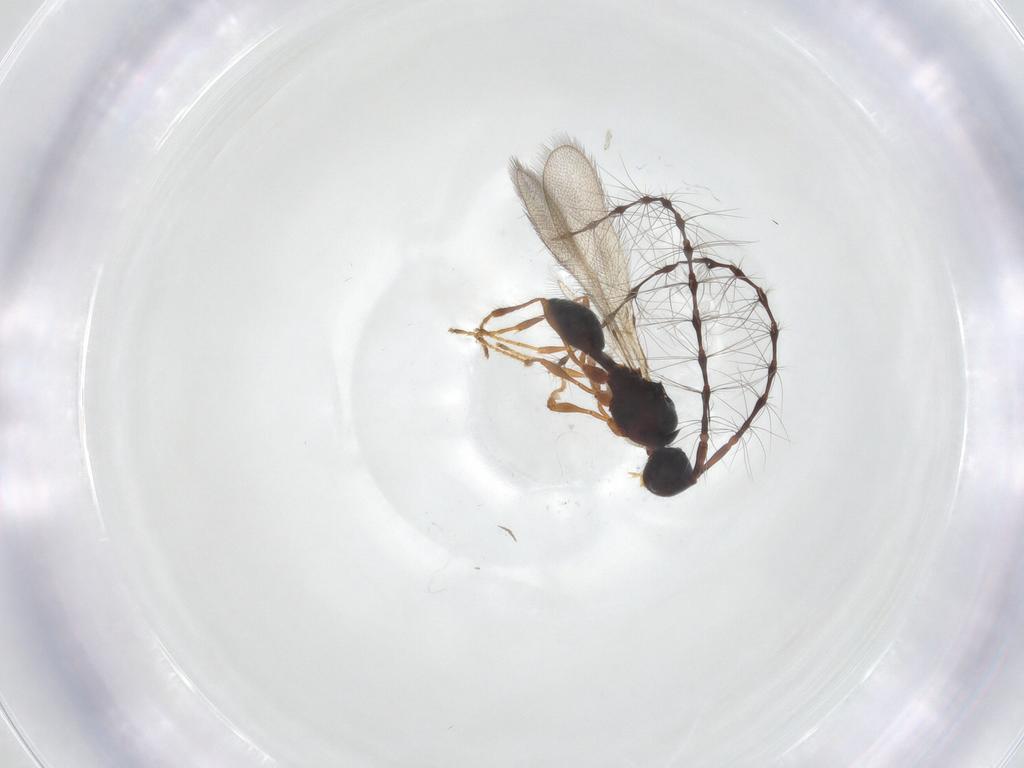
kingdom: Animalia
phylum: Arthropoda
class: Insecta
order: Hymenoptera
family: Diapriidae
